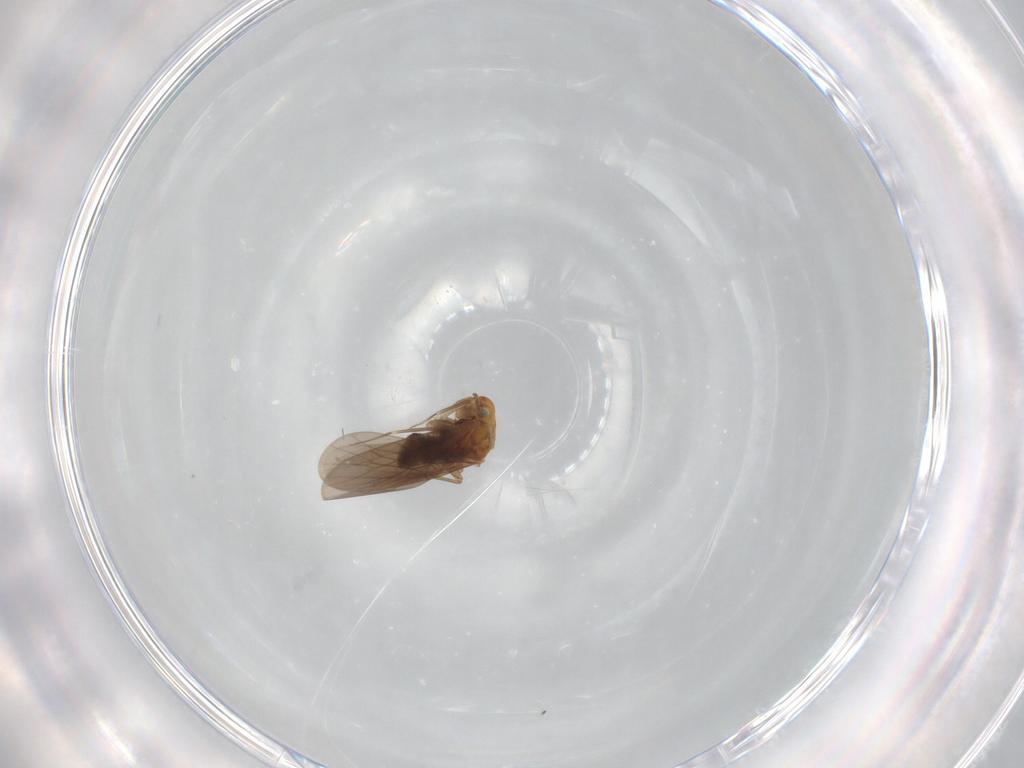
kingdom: Animalia
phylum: Arthropoda
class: Insecta
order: Psocodea
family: Lepidopsocidae
